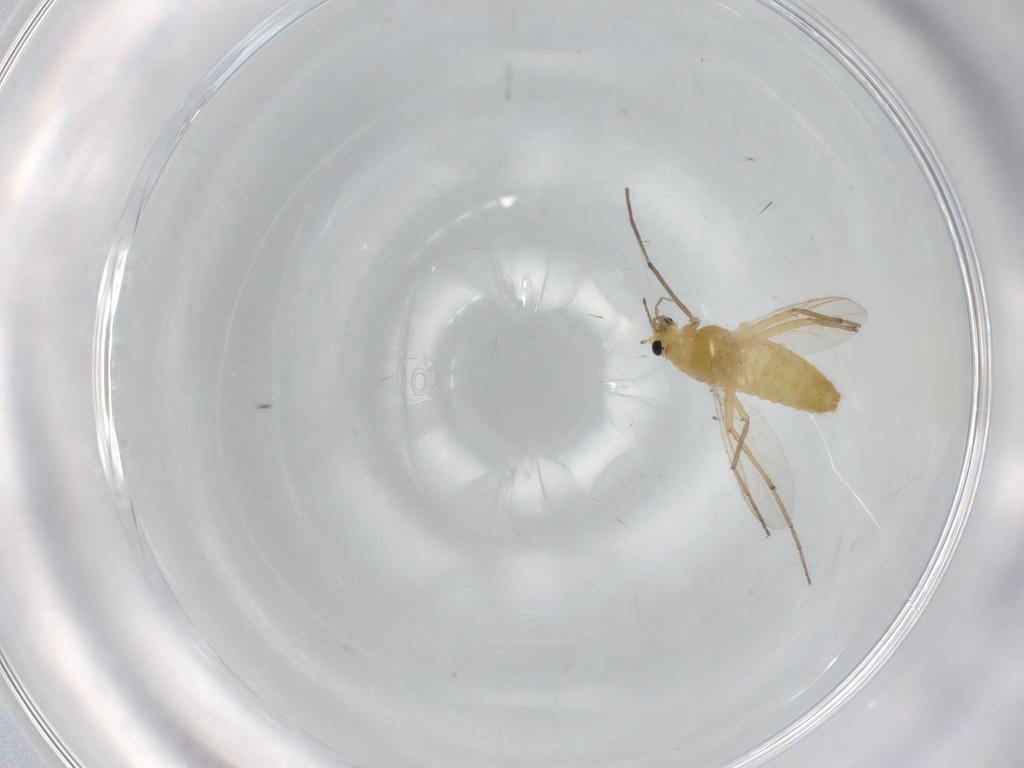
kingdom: Animalia
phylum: Arthropoda
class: Insecta
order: Diptera
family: Chironomidae
